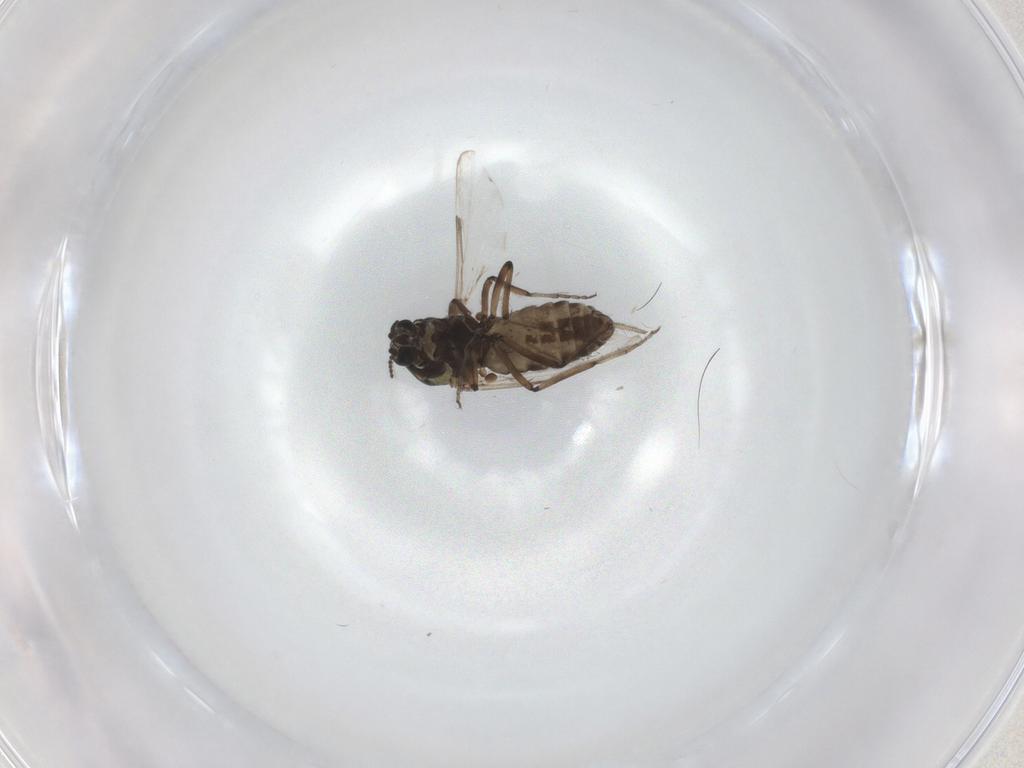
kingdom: Animalia
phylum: Arthropoda
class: Insecta
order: Diptera
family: Ceratopogonidae
